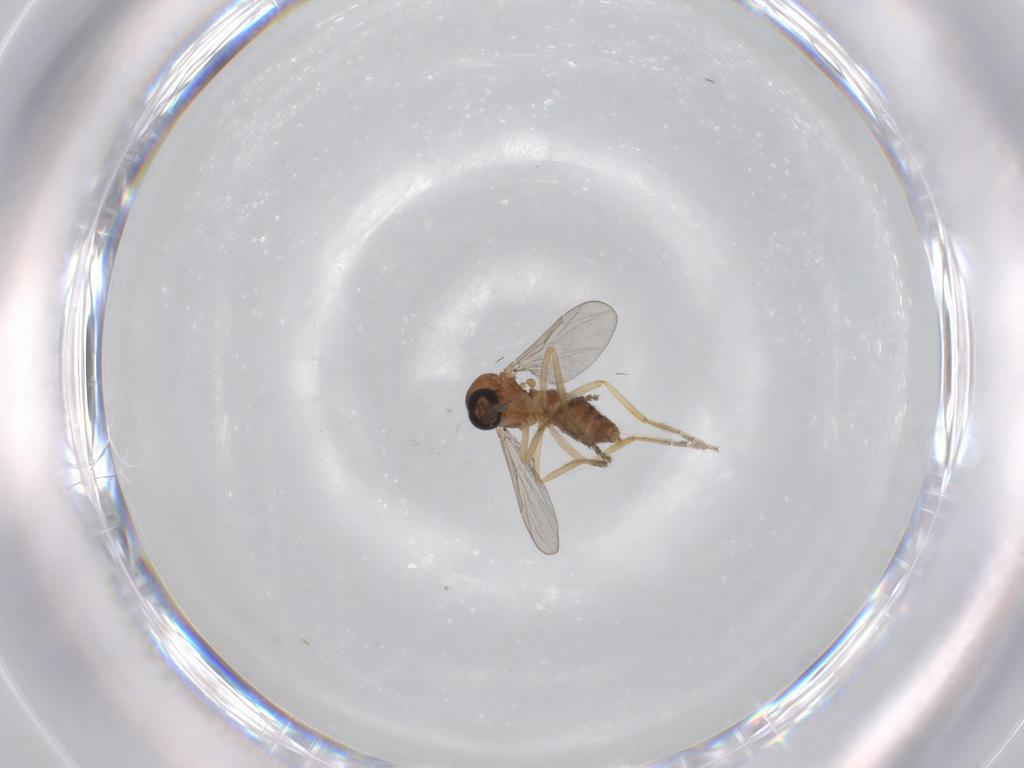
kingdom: Animalia
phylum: Arthropoda
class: Insecta
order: Diptera
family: Ceratopogonidae
